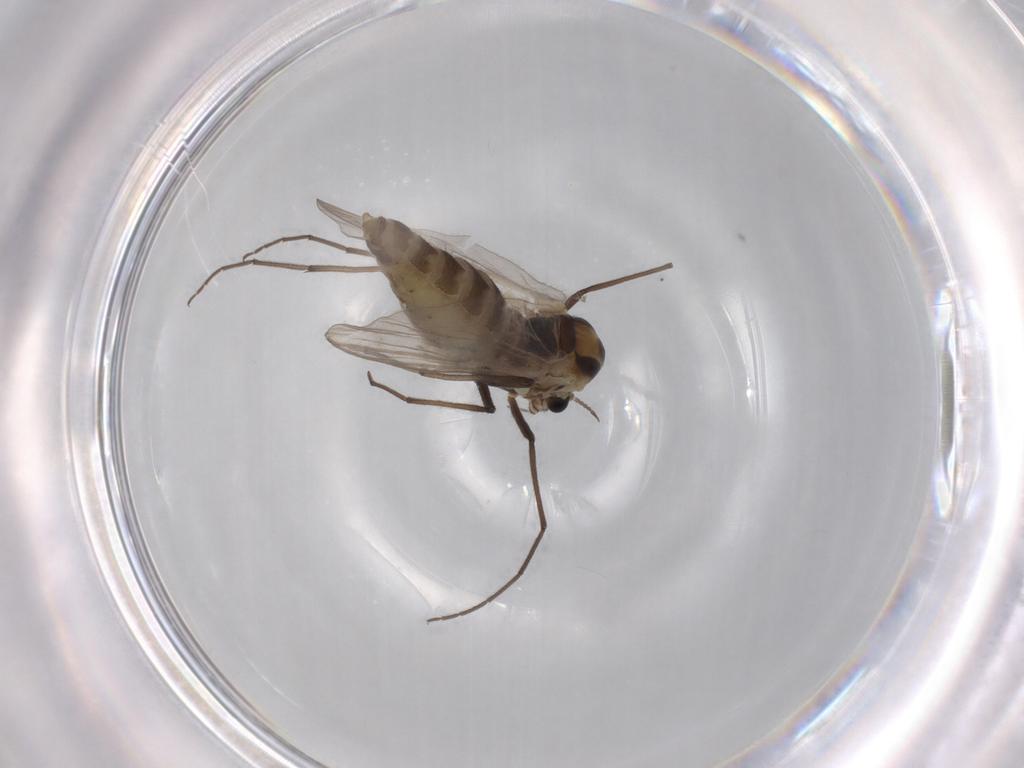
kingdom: Animalia
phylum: Arthropoda
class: Insecta
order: Diptera
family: Chironomidae
